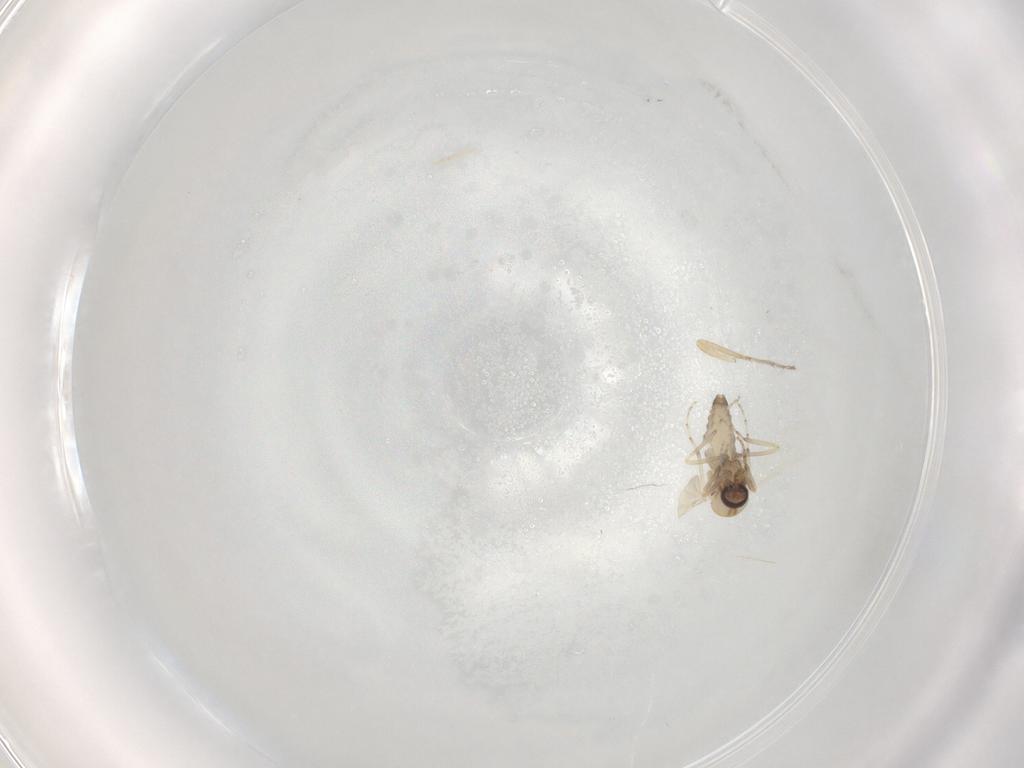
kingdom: Animalia
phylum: Arthropoda
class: Insecta
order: Diptera
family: Ceratopogonidae
